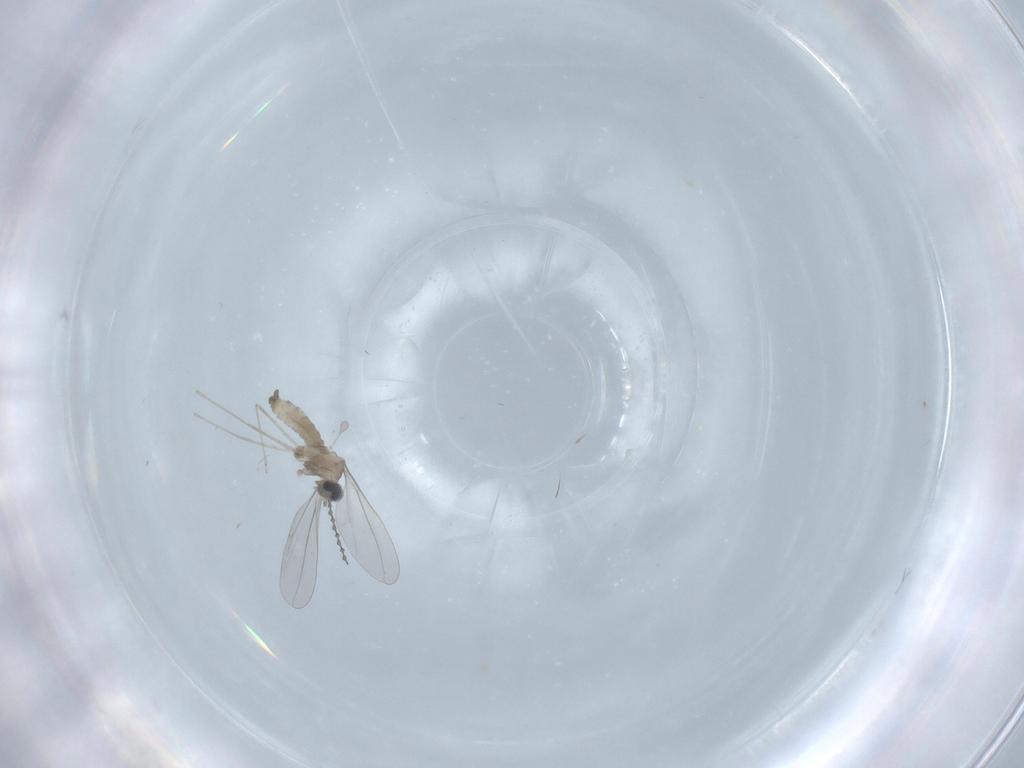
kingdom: Animalia
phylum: Arthropoda
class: Insecta
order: Diptera
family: Cecidomyiidae
